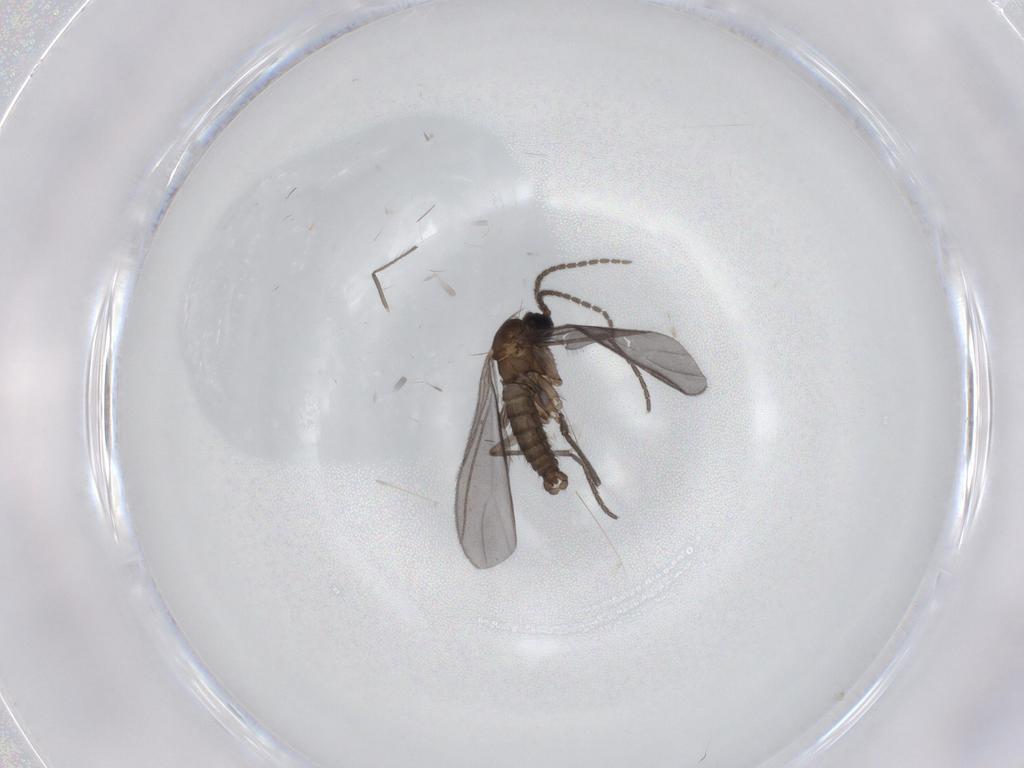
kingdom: Animalia
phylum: Arthropoda
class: Insecta
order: Diptera
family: Sciaridae
